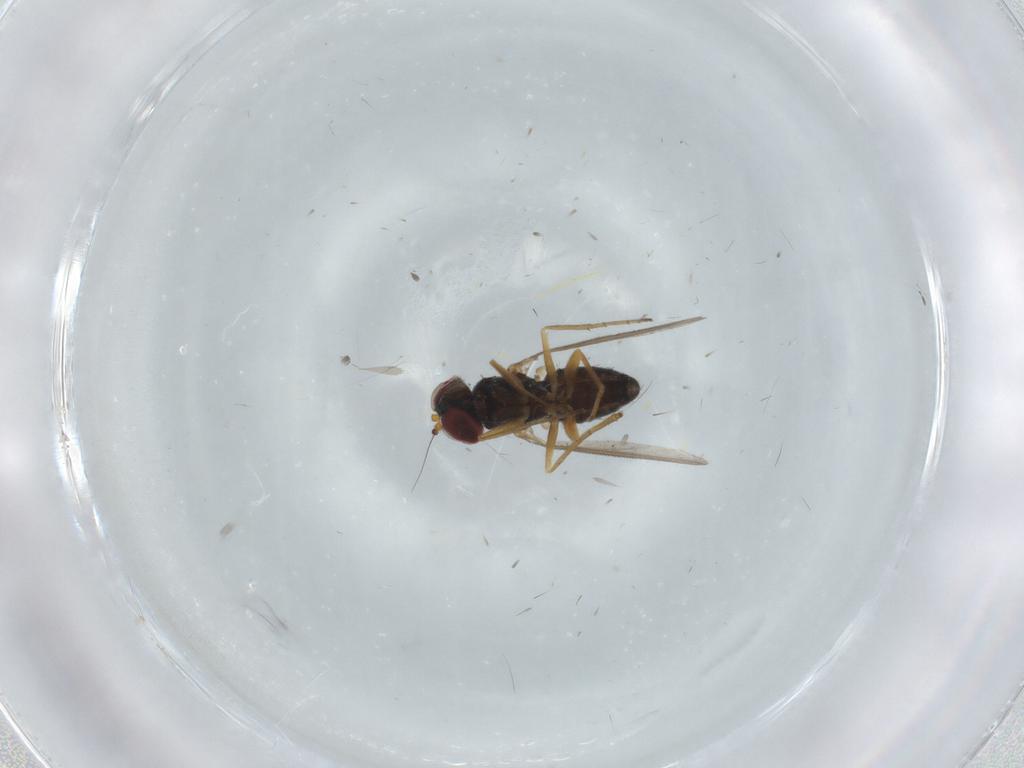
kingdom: Animalia
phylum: Arthropoda
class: Insecta
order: Diptera
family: Dolichopodidae
